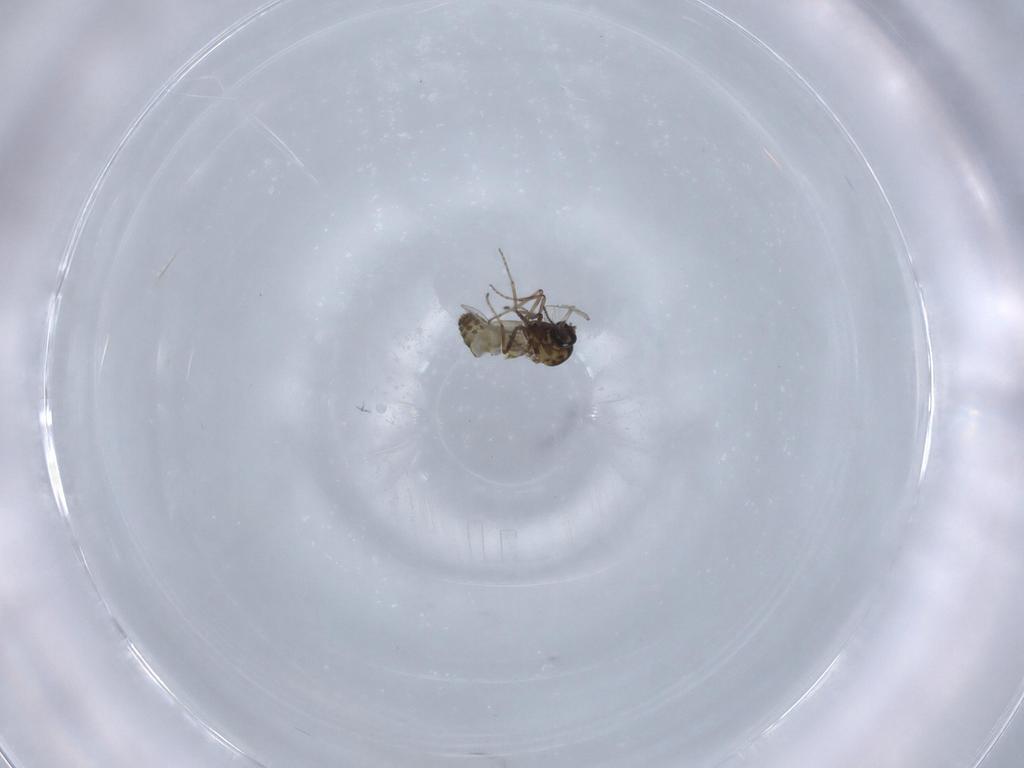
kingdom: Animalia
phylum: Arthropoda
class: Insecta
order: Diptera
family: Ceratopogonidae
